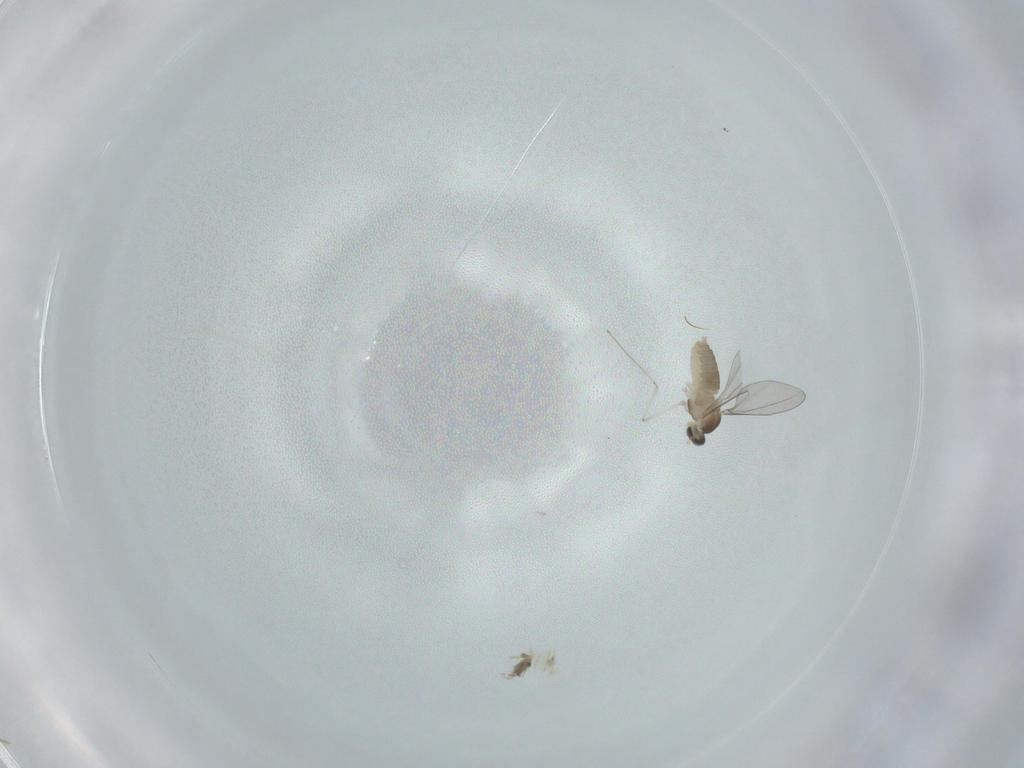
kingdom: Animalia
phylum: Arthropoda
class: Insecta
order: Diptera
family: Cecidomyiidae
